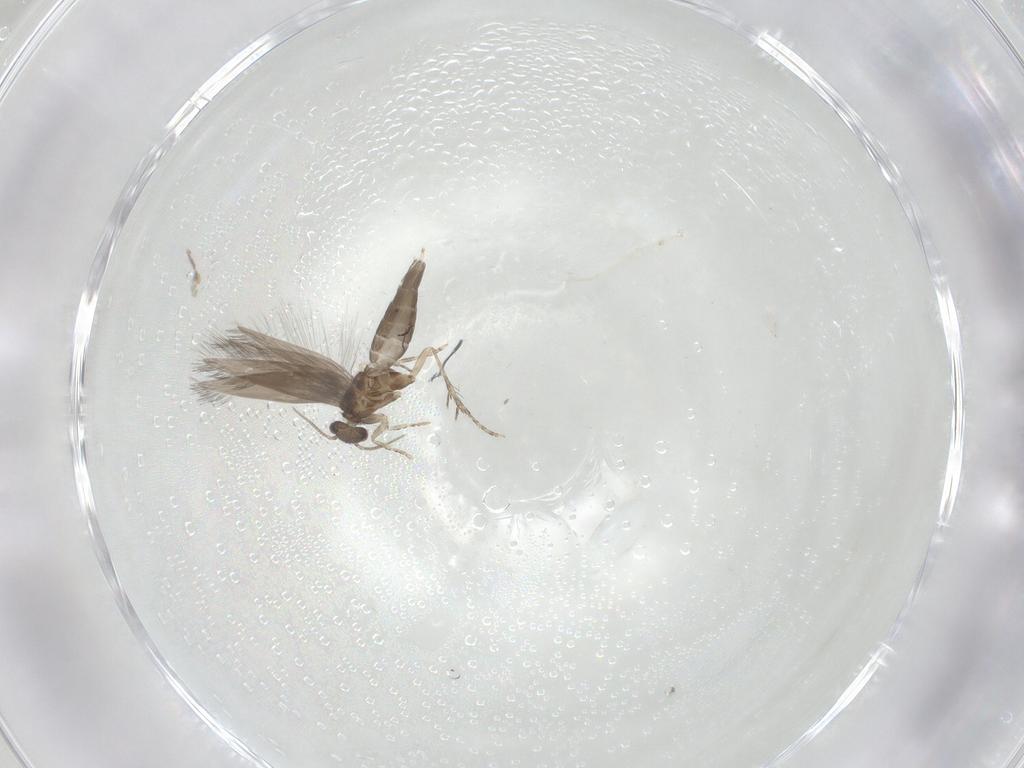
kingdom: Animalia
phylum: Arthropoda
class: Insecta
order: Trichoptera
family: Hydroptilidae
